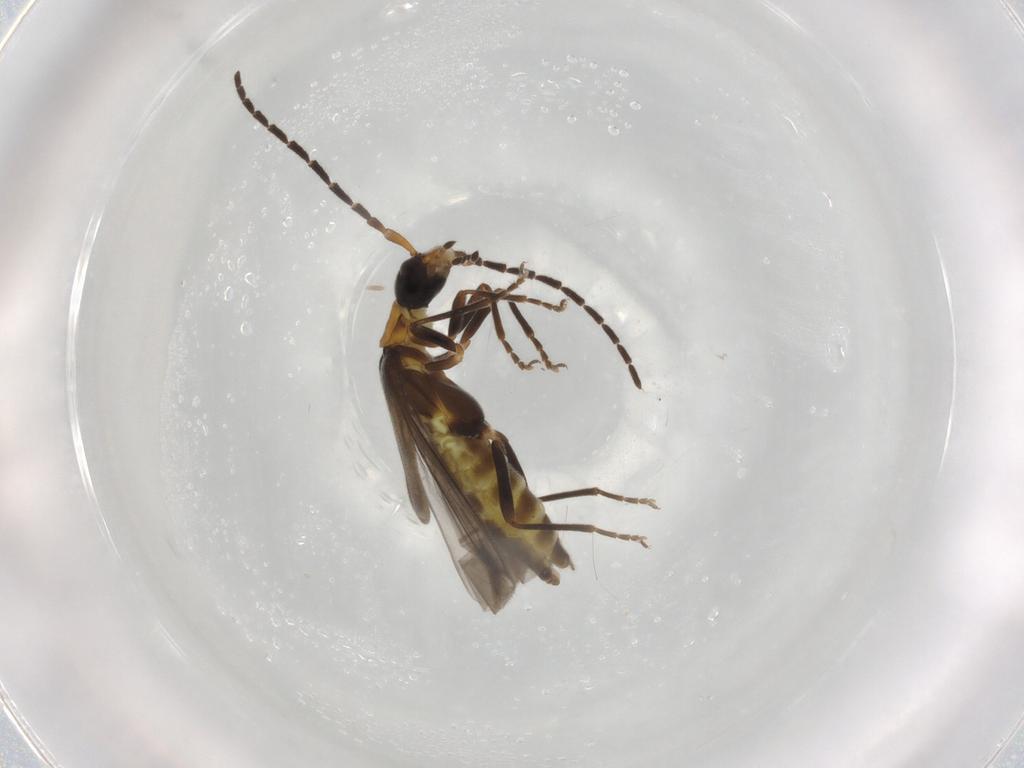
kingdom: Animalia
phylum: Arthropoda
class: Insecta
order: Coleoptera
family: Cantharidae
